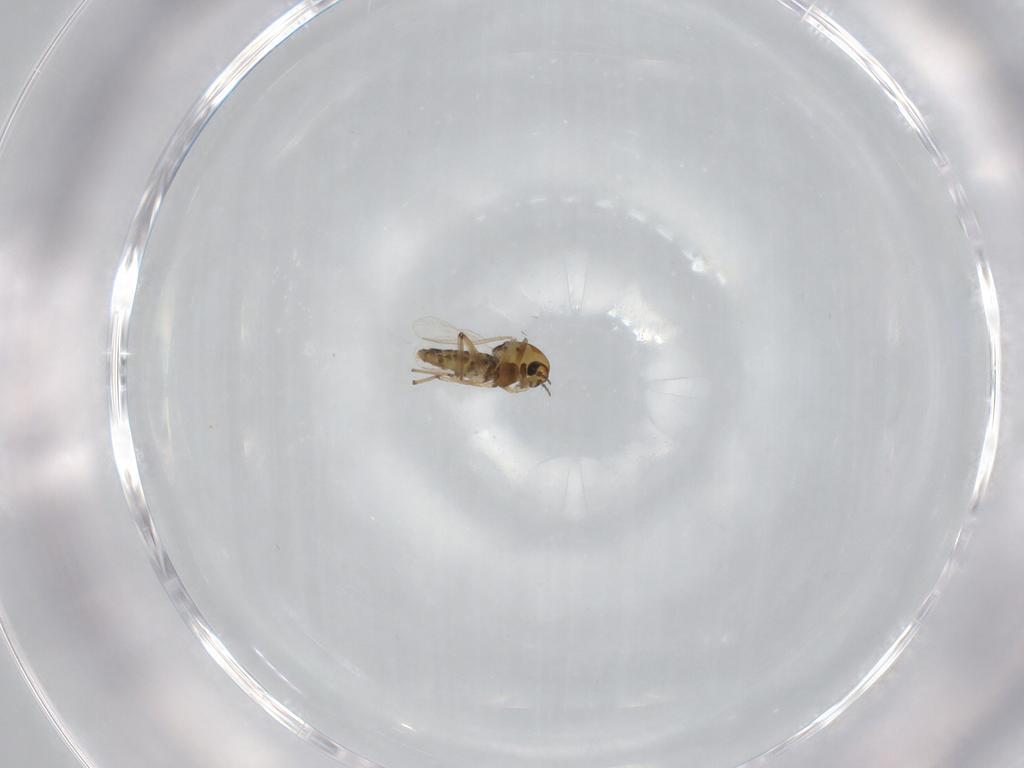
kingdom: Animalia
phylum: Arthropoda
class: Insecta
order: Diptera
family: Chironomidae
